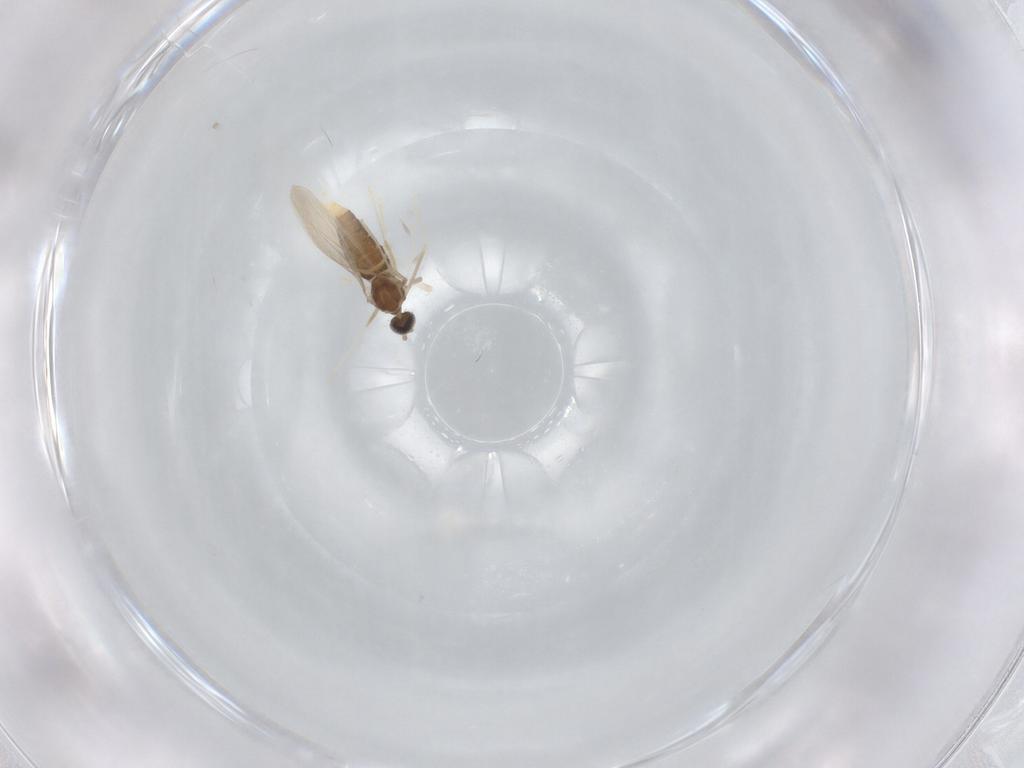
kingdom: Animalia
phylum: Arthropoda
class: Insecta
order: Diptera
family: Cecidomyiidae
